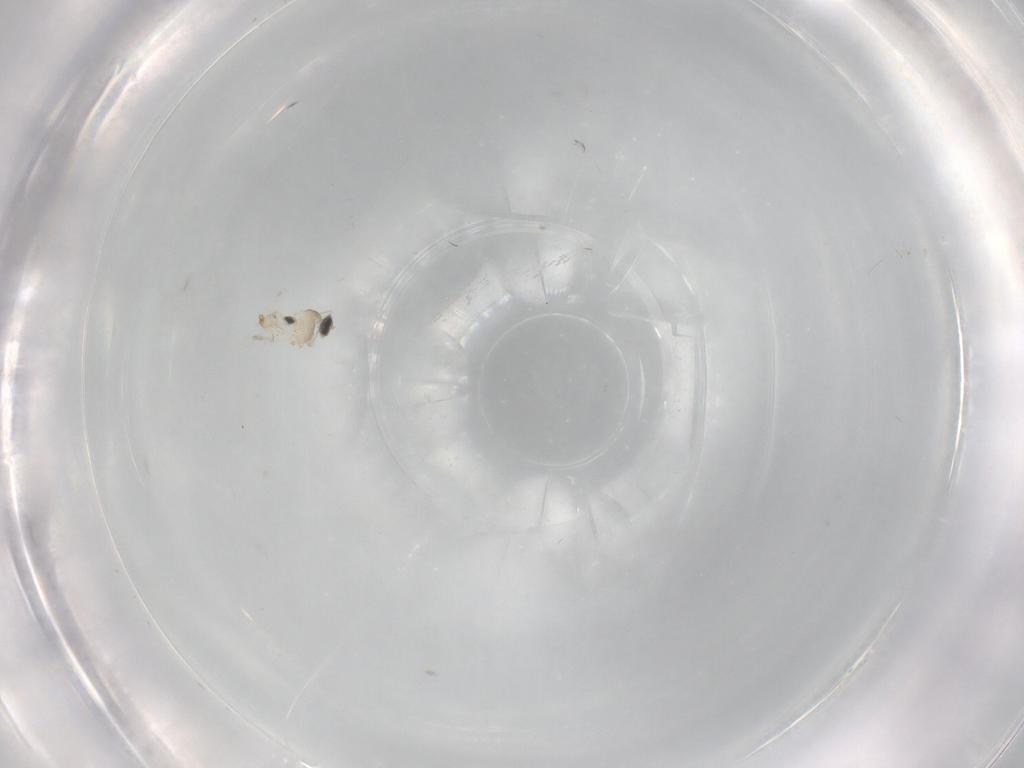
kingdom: Animalia
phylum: Arthropoda
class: Insecta
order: Diptera
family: Cecidomyiidae
